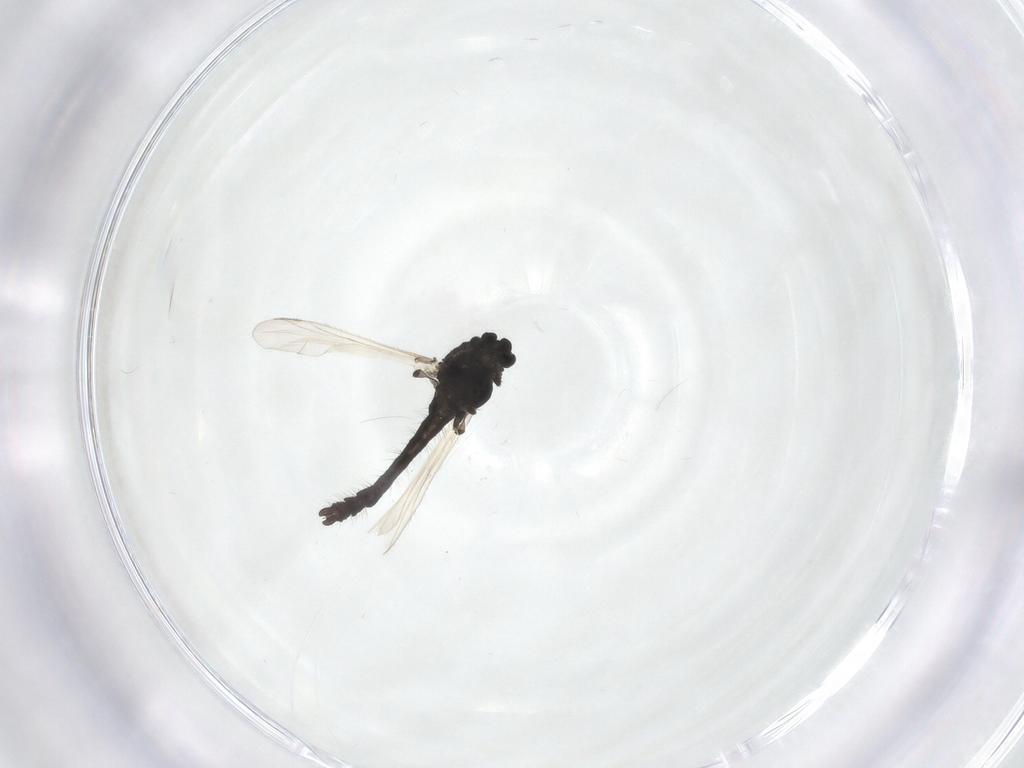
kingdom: Animalia
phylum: Arthropoda
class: Insecta
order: Diptera
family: Chironomidae
